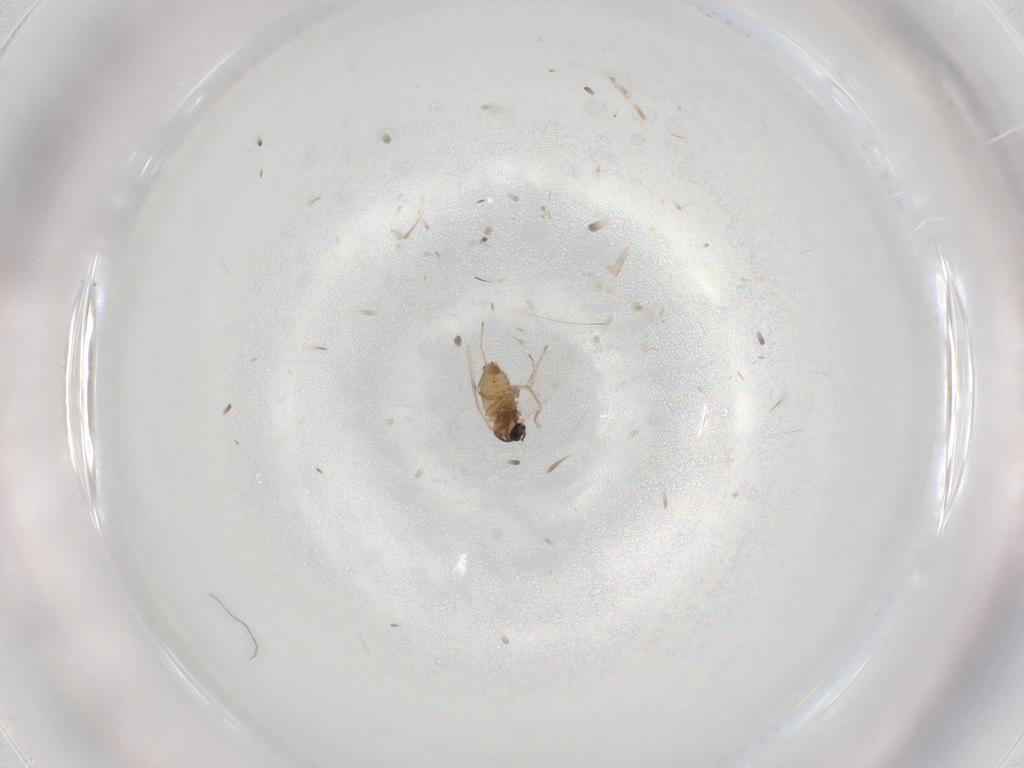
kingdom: Animalia
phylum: Arthropoda
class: Insecta
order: Diptera
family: Cecidomyiidae
